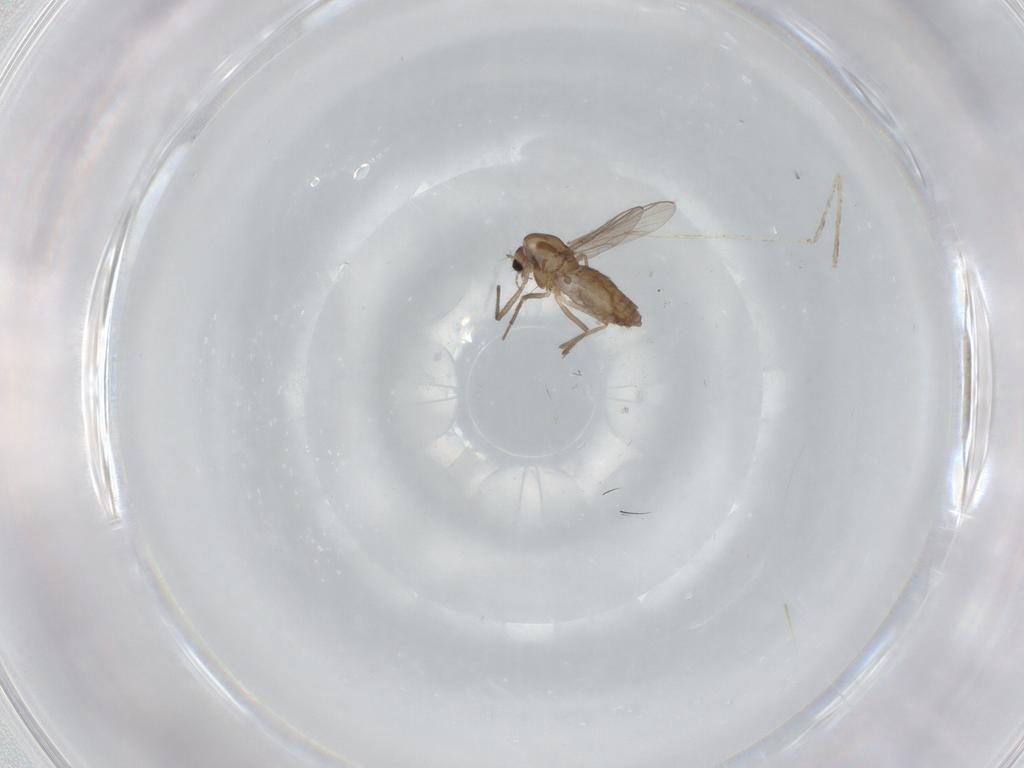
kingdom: Animalia
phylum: Arthropoda
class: Insecta
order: Diptera
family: Chironomidae
